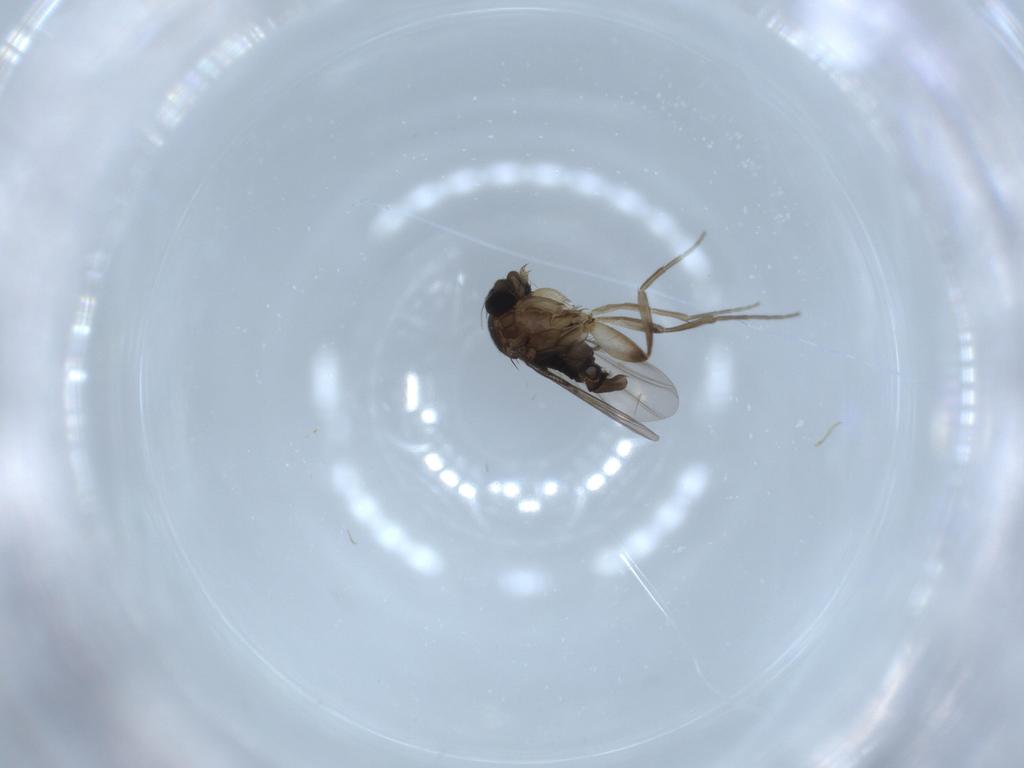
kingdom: Animalia
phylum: Arthropoda
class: Insecta
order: Diptera
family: Phoridae
